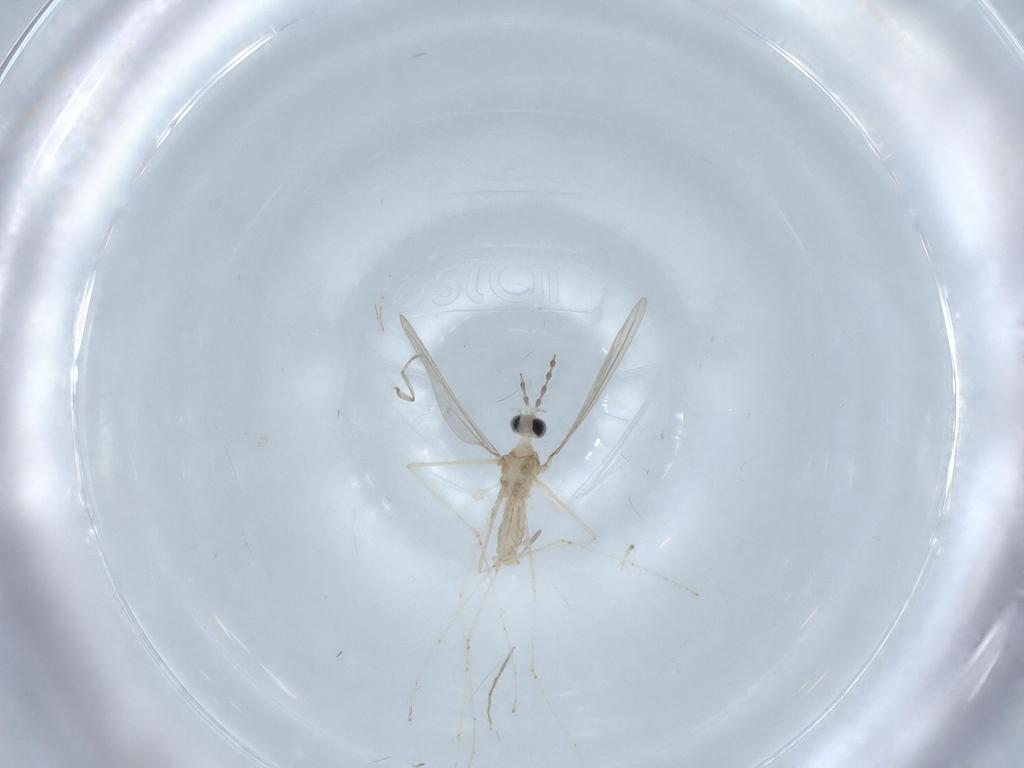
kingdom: Animalia
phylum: Arthropoda
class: Insecta
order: Diptera
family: Cecidomyiidae
